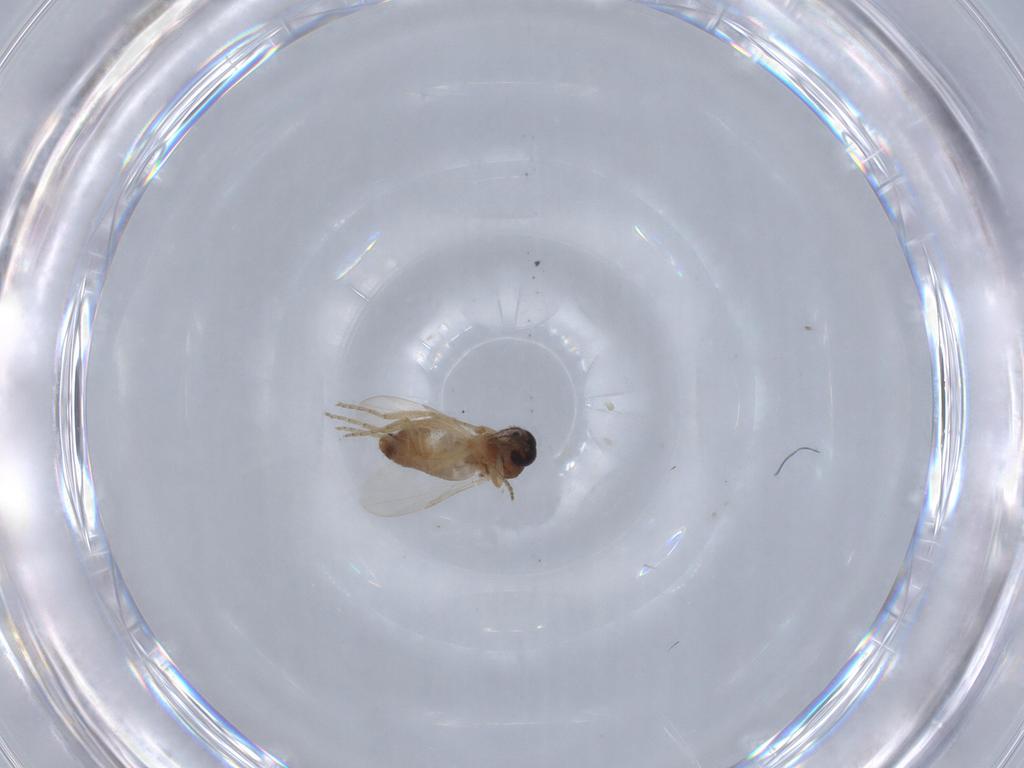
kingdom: Animalia
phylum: Arthropoda
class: Insecta
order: Diptera
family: Ceratopogonidae
